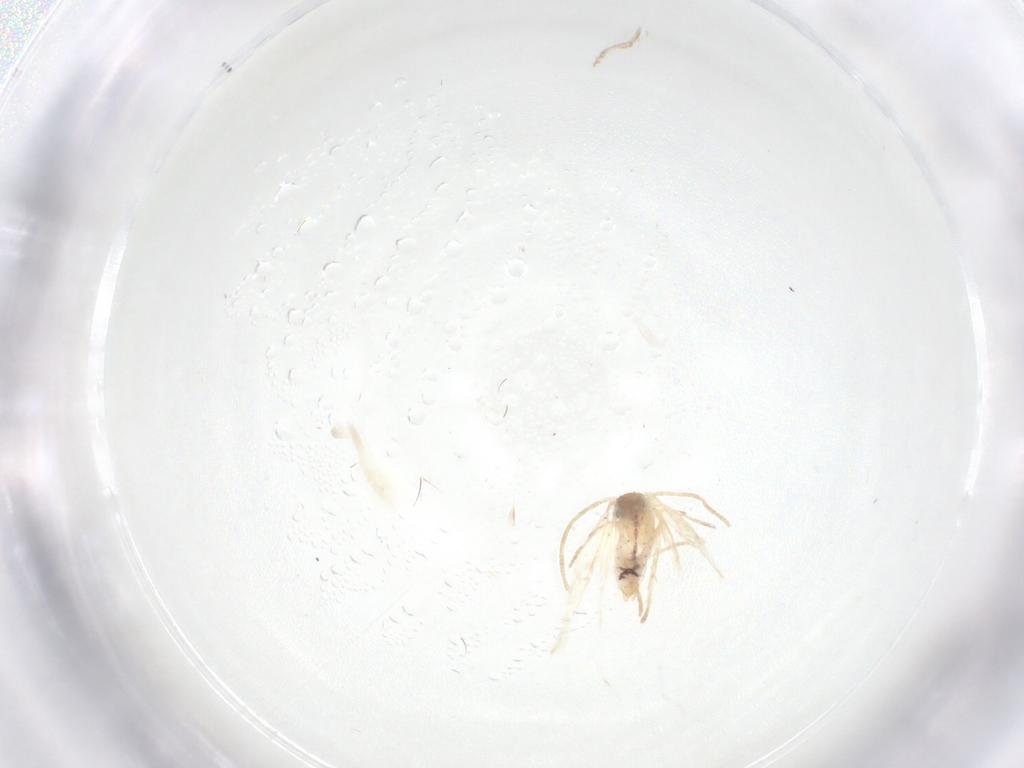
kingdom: Animalia
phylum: Arthropoda
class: Insecta
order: Lepidoptera
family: Nepticulidae
